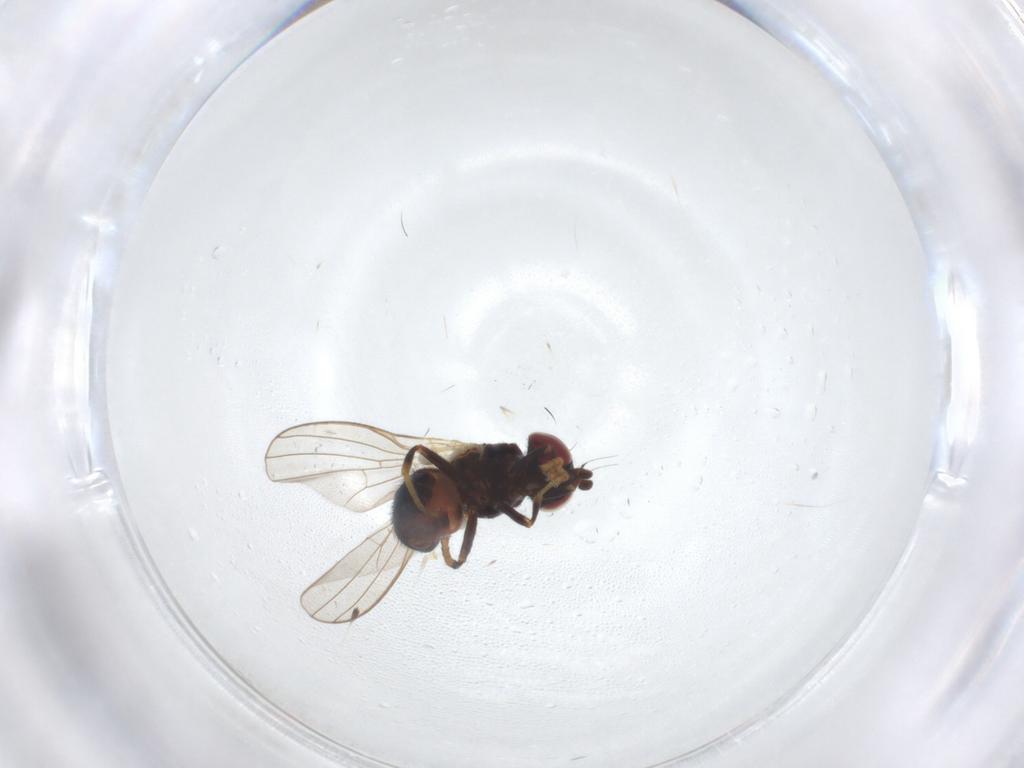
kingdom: Animalia
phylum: Arthropoda
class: Insecta
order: Diptera
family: Chamaemyiidae
